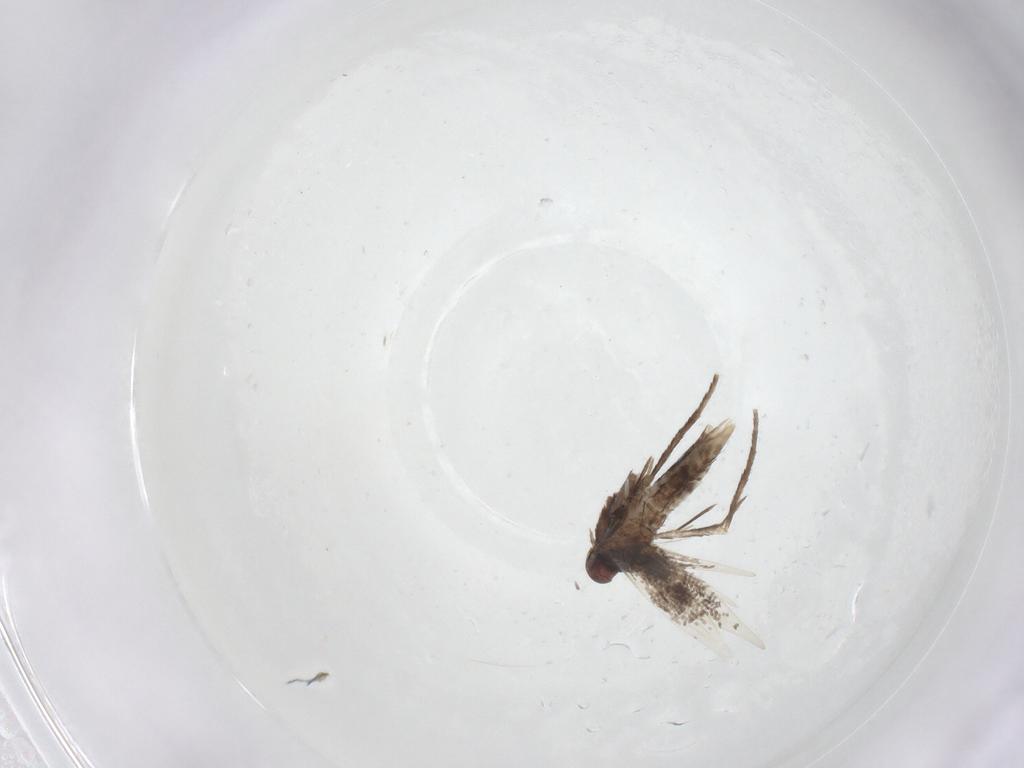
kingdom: Animalia
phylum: Arthropoda
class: Insecta
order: Lepidoptera
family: Gracillariidae
